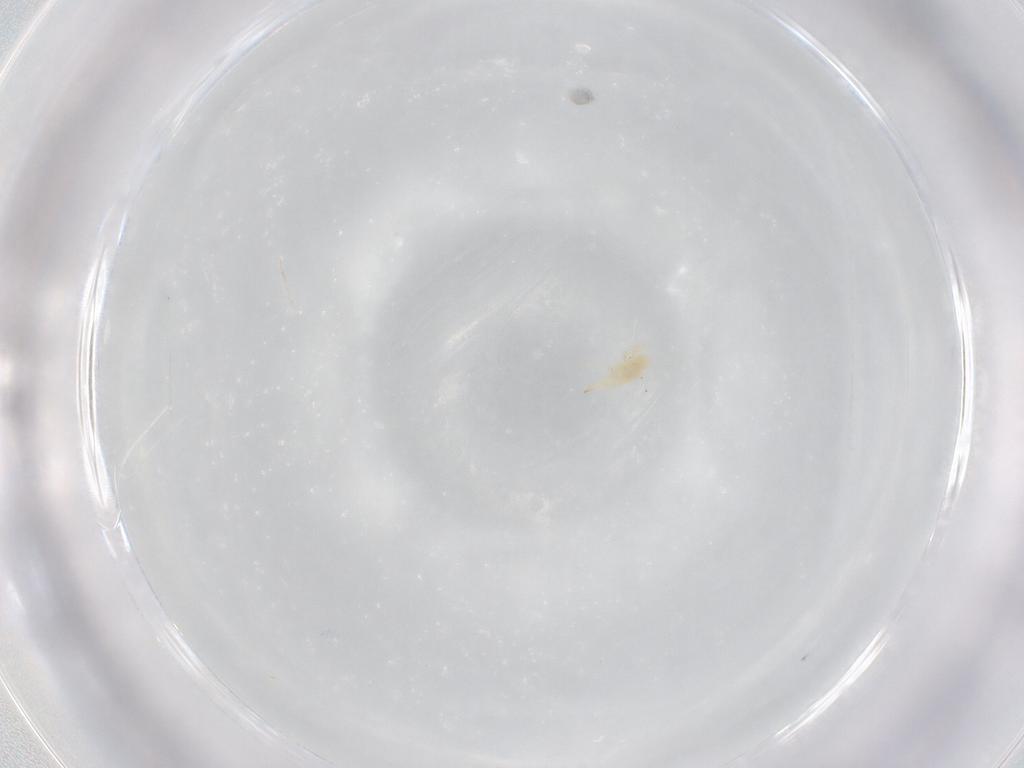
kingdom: Animalia
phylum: Arthropoda
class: Arachnida
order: Trombidiformes
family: Bdellidae
